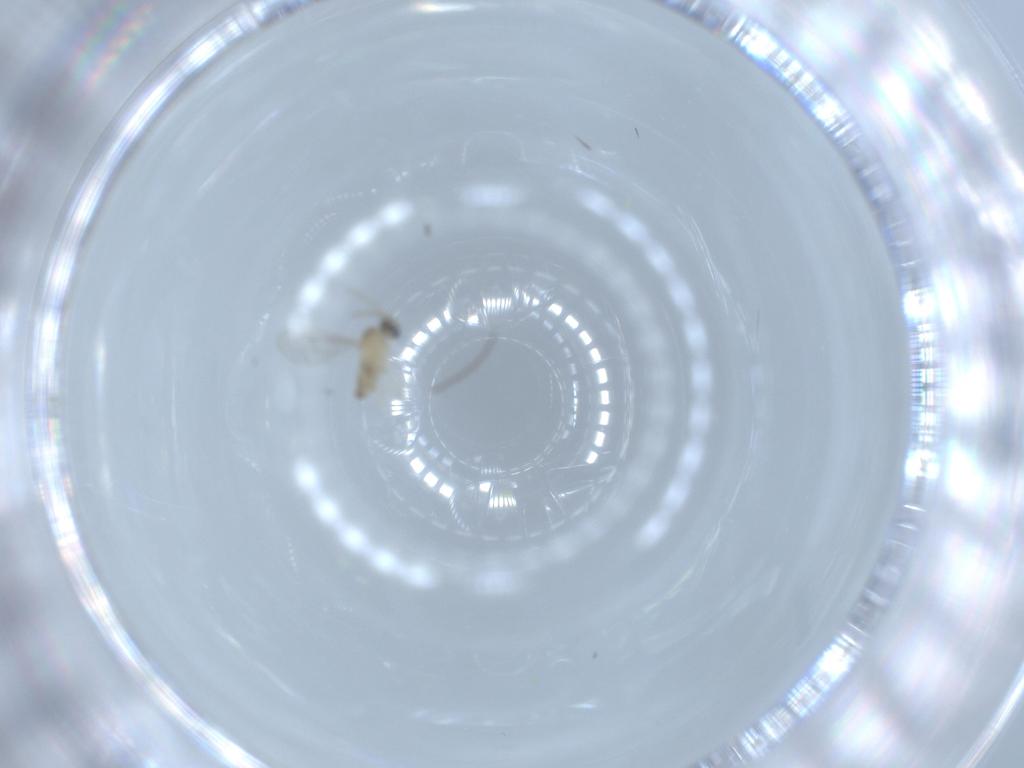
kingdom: Animalia
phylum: Arthropoda
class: Insecta
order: Diptera
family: Cecidomyiidae
